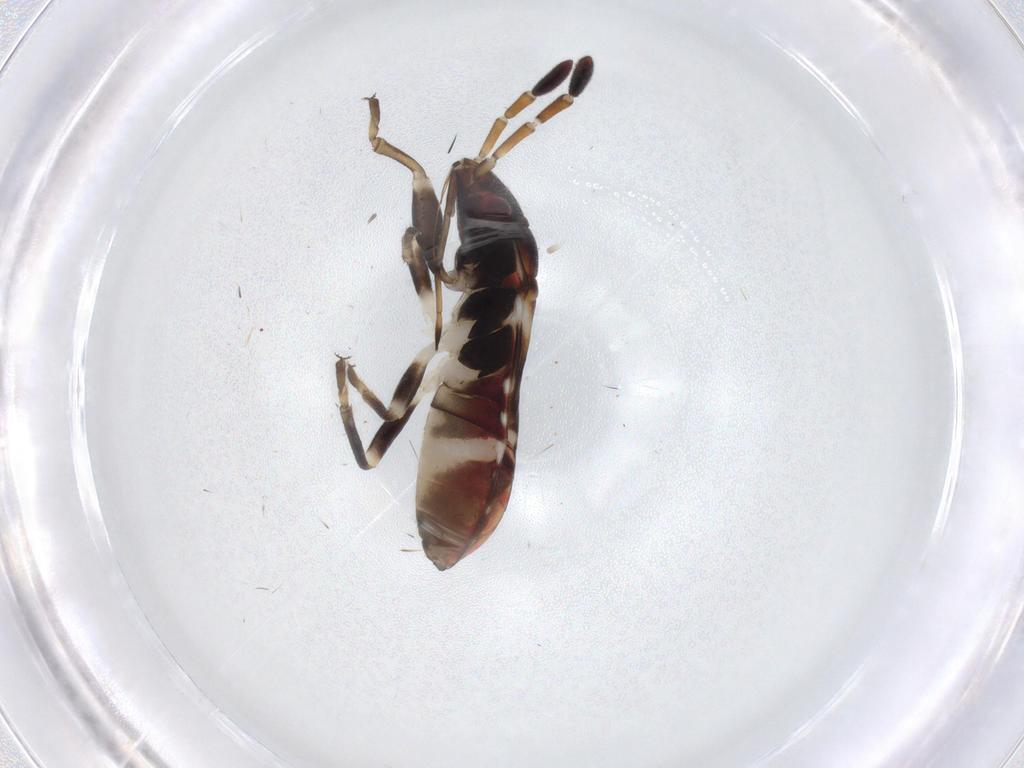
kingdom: Animalia
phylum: Arthropoda
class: Insecta
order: Hemiptera
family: Rhyparochromidae
